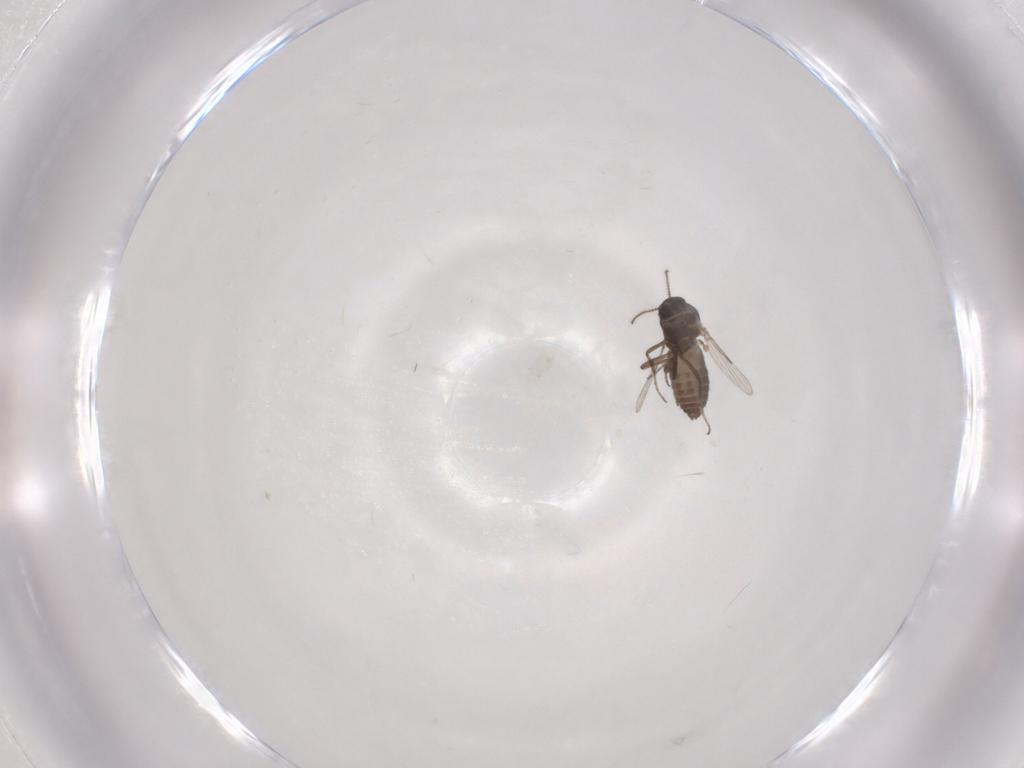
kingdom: Animalia
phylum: Arthropoda
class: Insecta
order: Diptera
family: Ceratopogonidae
